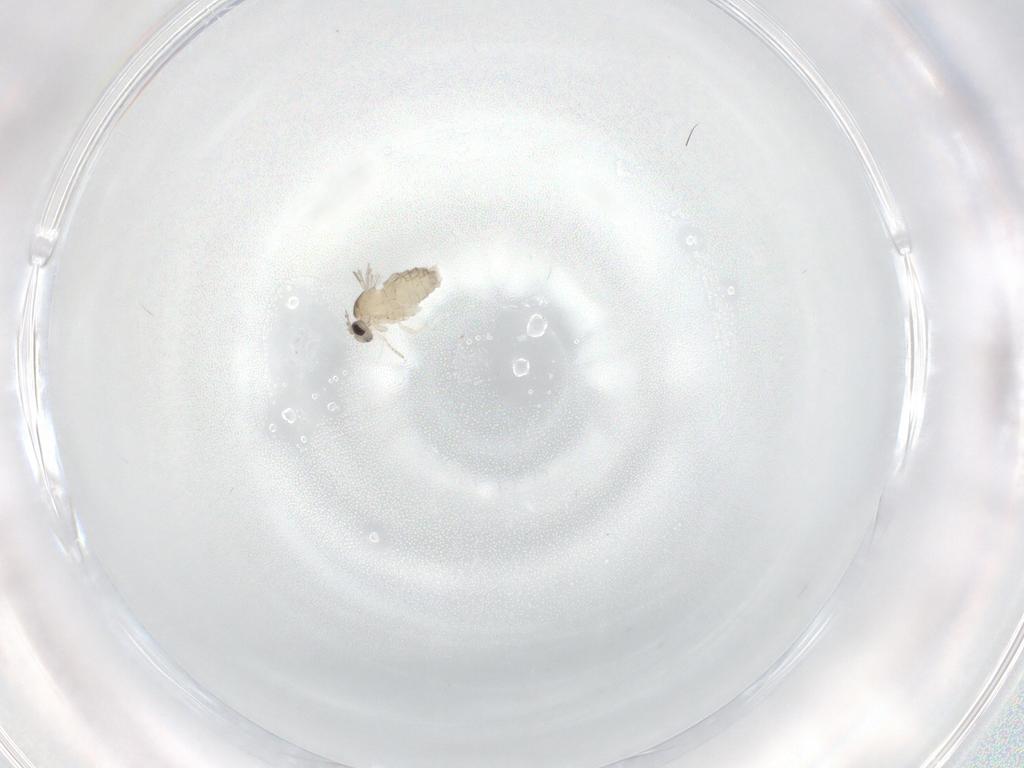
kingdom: Animalia
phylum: Arthropoda
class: Insecta
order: Diptera
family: Cecidomyiidae
